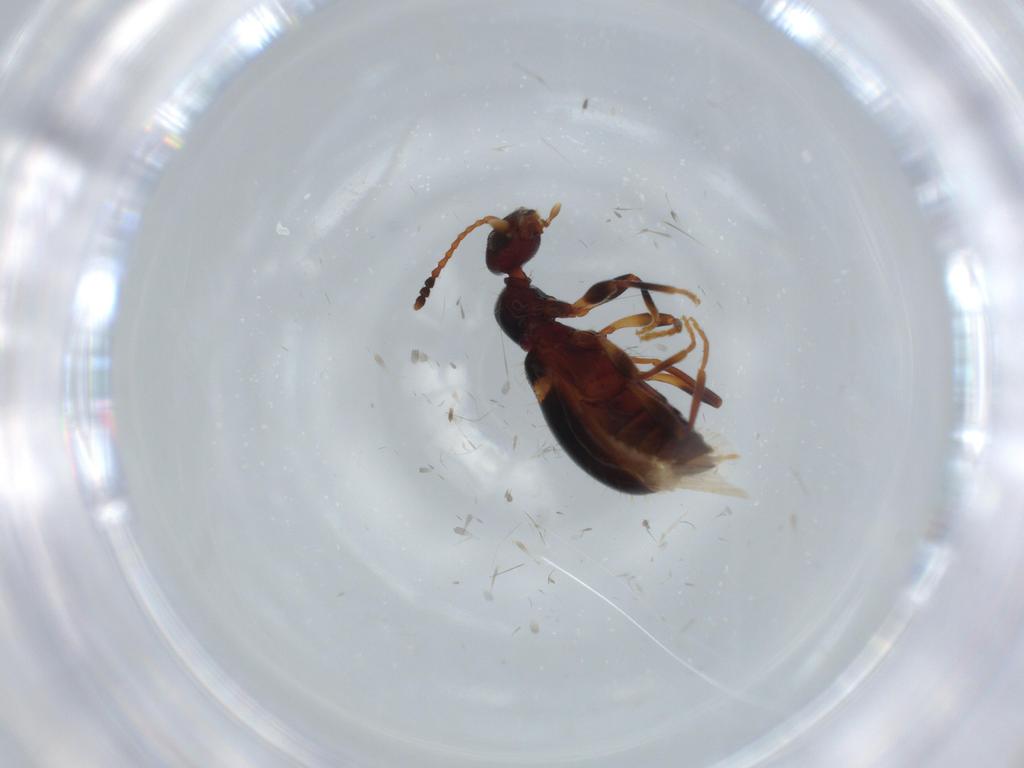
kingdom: Animalia
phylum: Arthropoda
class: Insecta
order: Coleoptera
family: Anthicidae
